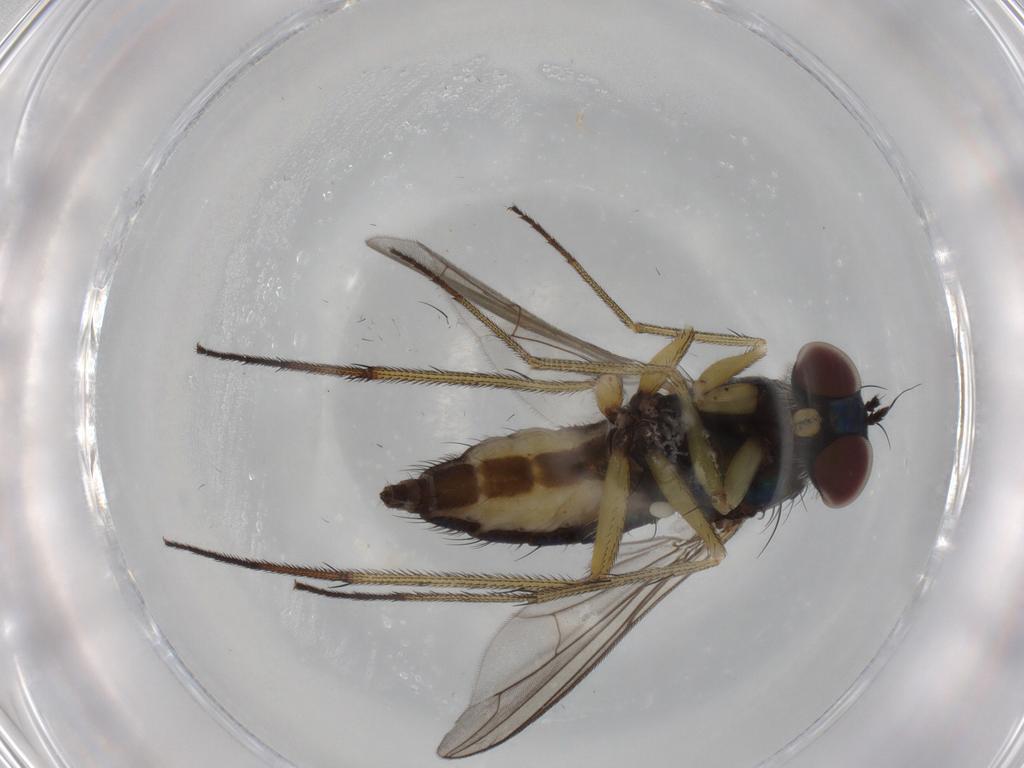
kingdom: Animalia
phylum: Arthropoda
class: Insecta
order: Diptera
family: Dolichopodidae
